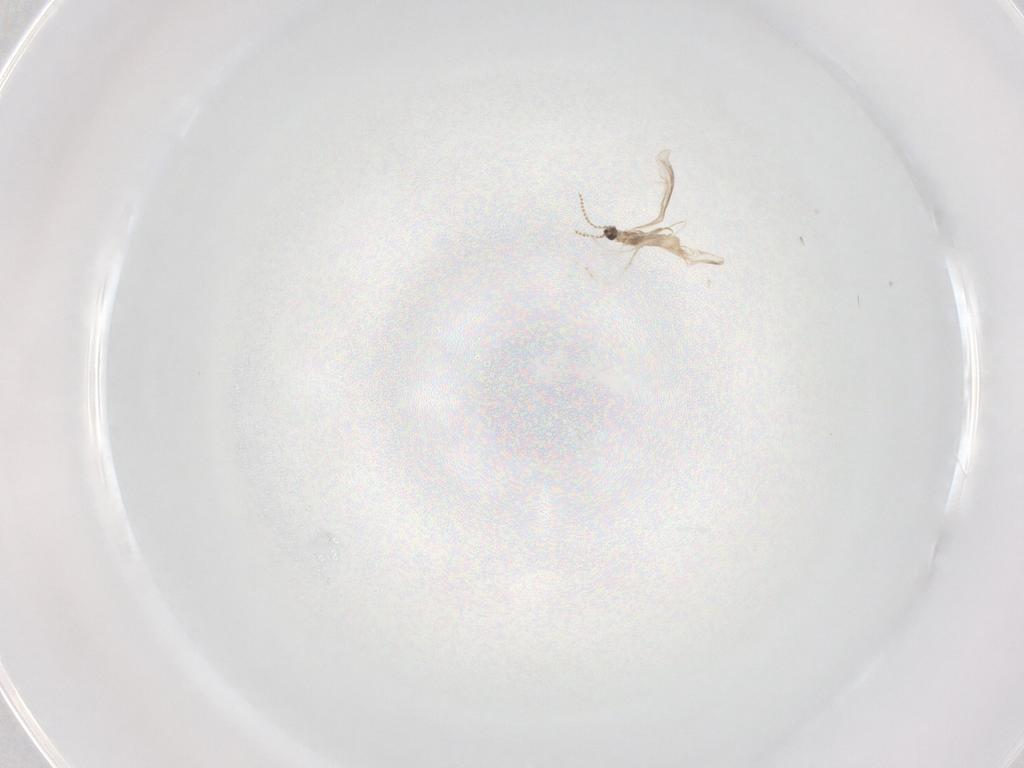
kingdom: Animalia
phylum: Arthropoda
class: Insecta
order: Diptera
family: Cecidomyiidae
